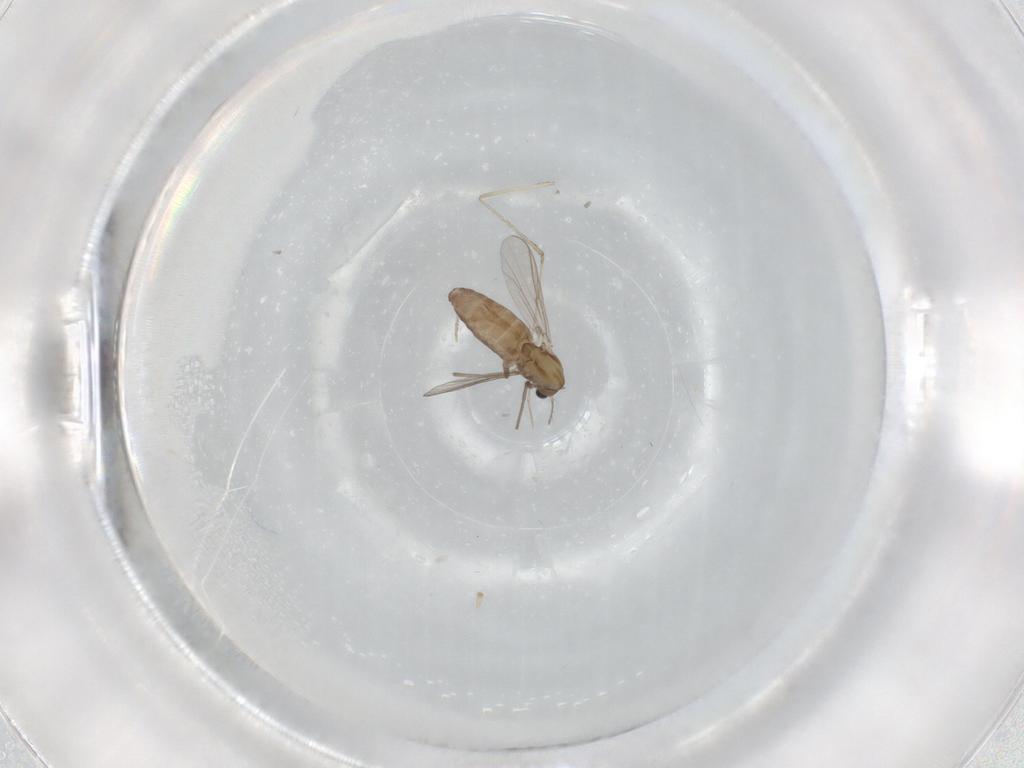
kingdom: Animalia
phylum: Arthropoda
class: Insecta
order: Diptera
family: Chironomidae
